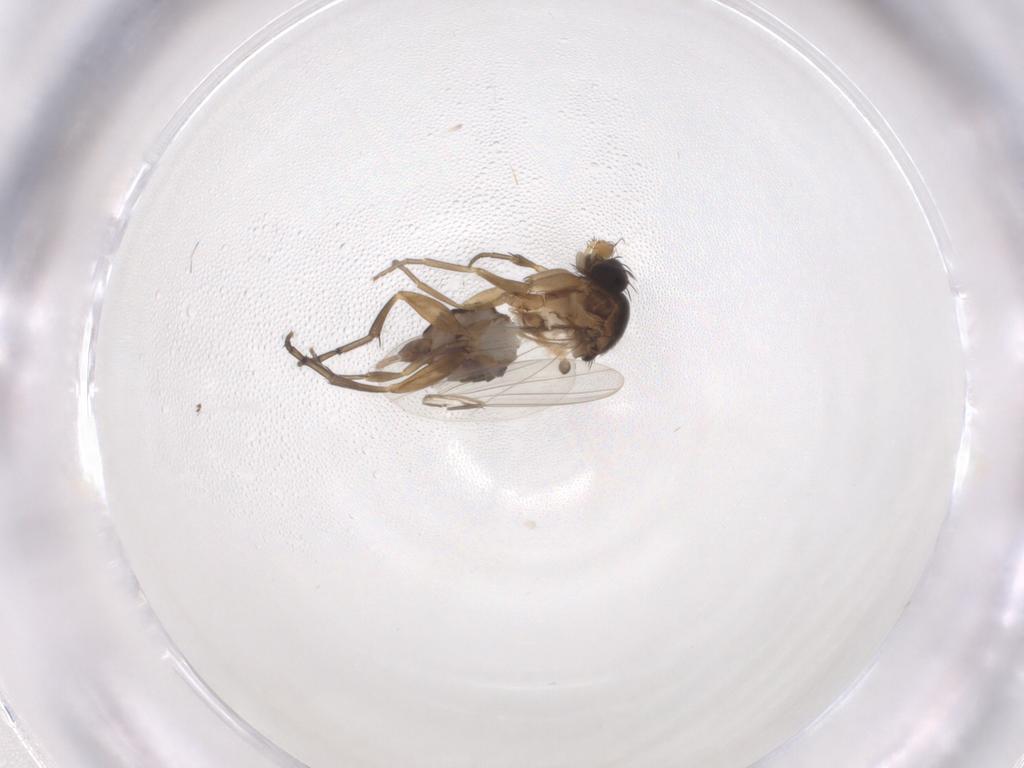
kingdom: Animalia
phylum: Arthropoda
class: Insecta
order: Diptera
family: Phoridae
